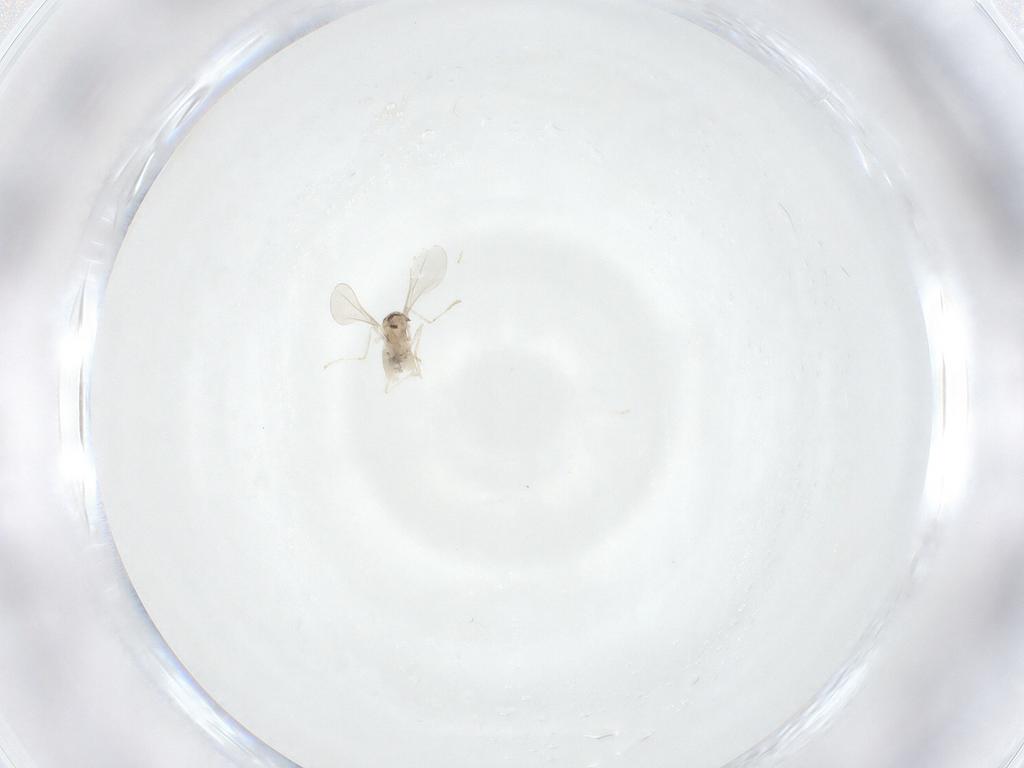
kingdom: Animalia
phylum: Arthropoda
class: Insecta
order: Diptera
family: Cecidomyiidae
